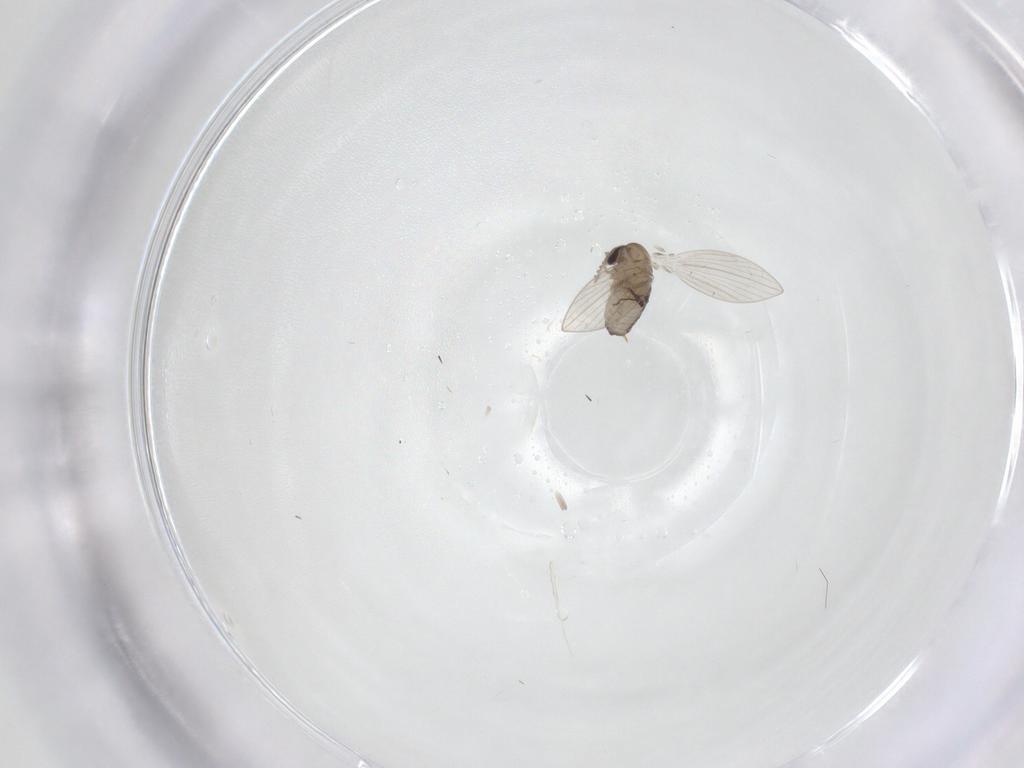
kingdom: Animalia
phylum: Arthropoda
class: Insecta
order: Diptera
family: Psychodidae
